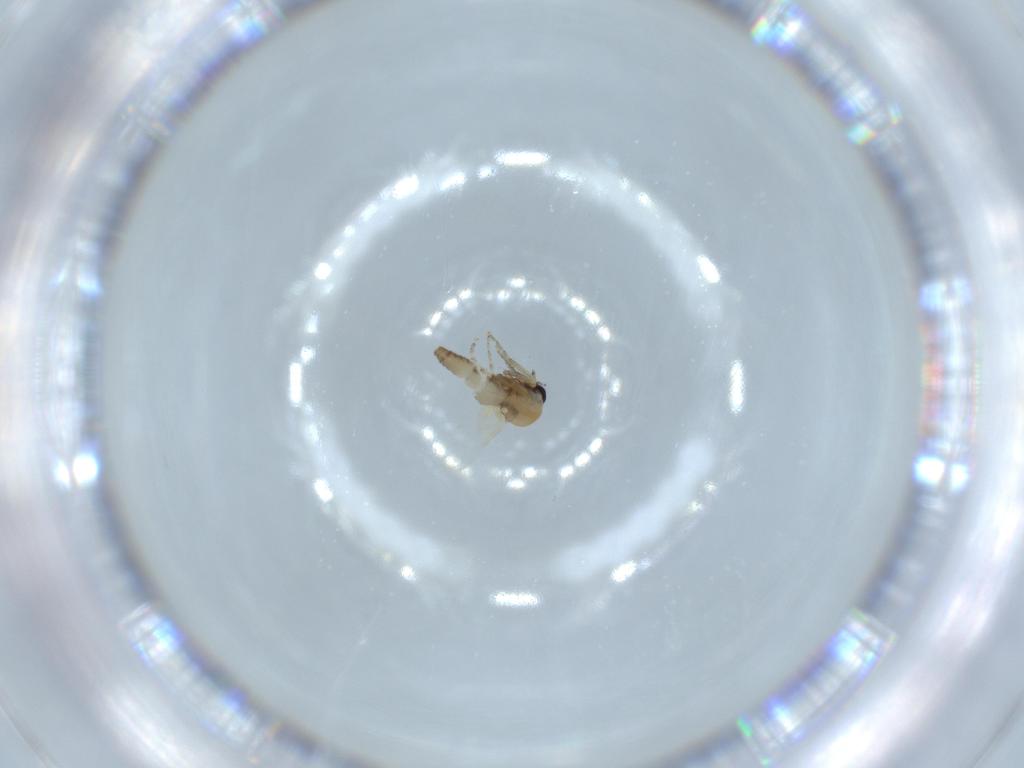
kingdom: Animalia
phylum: Arthropoda
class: Insecta
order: Diptera
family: Ceratopogonidae
